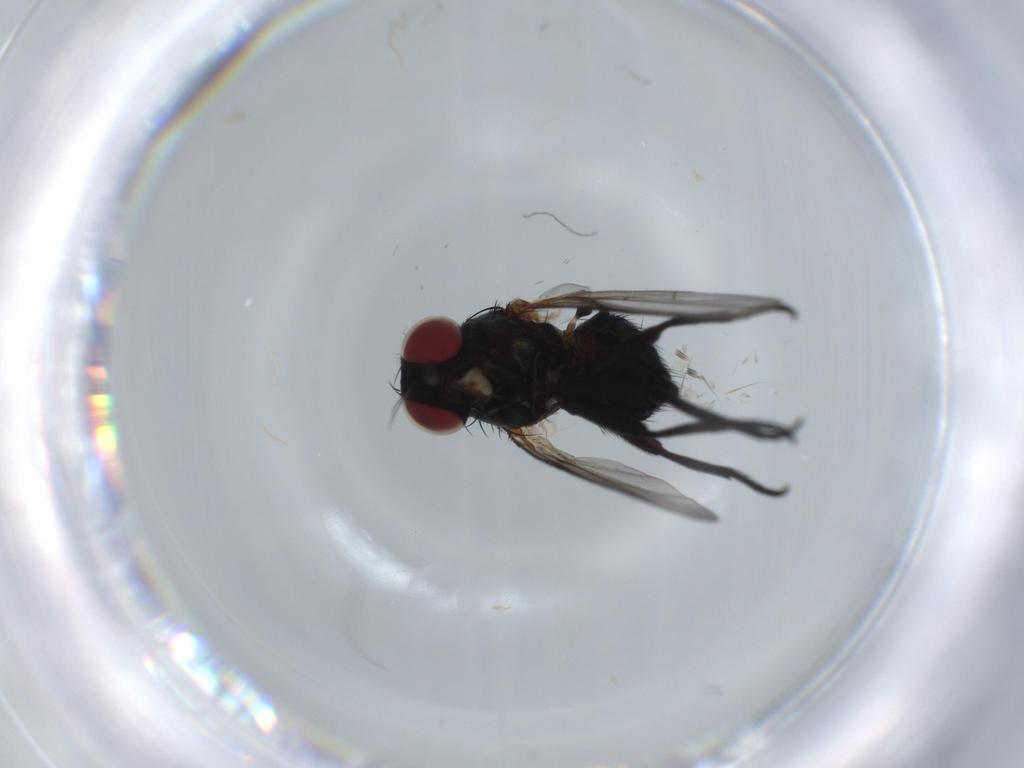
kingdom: Animalia
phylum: Arthropoda
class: Insecta
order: Diptera
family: Agromyzidae
